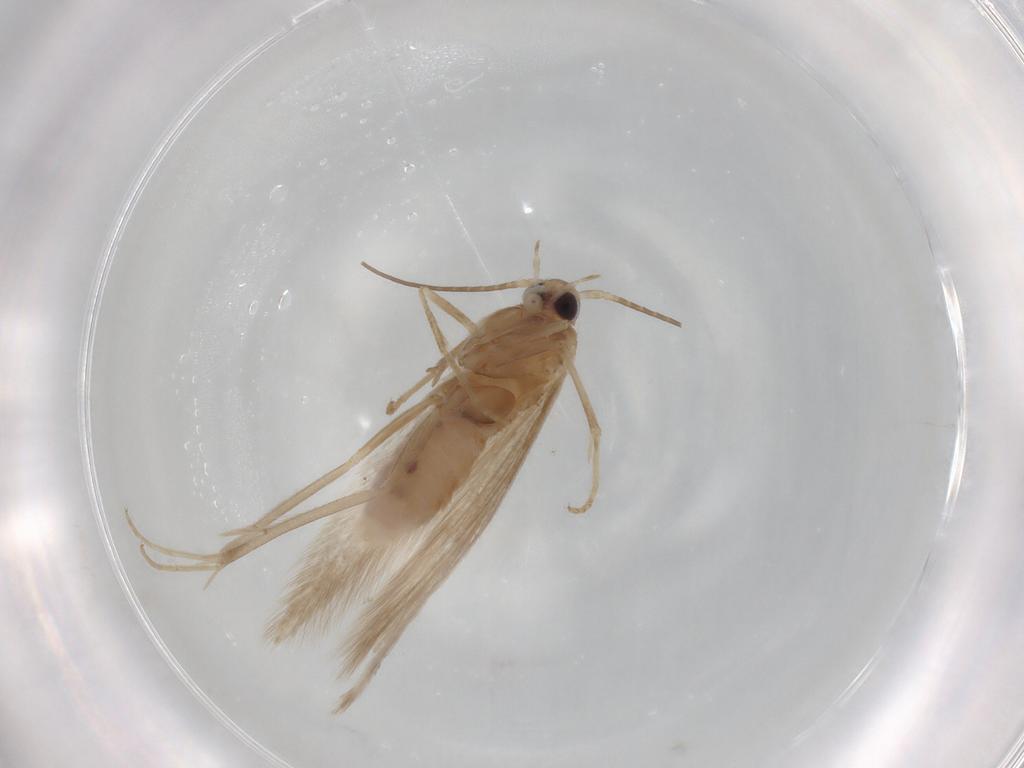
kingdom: Animalia
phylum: Arthropoda
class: Insecta
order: Lepidoptera
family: Coleophoridae
